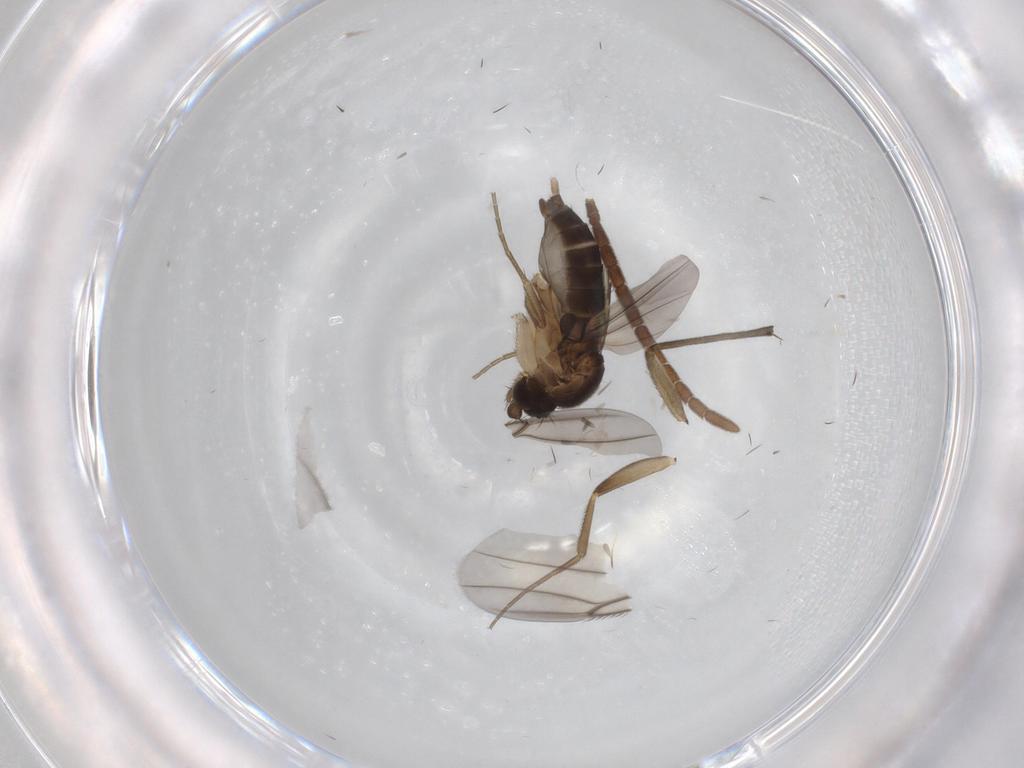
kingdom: Animalia
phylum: Arthropoda
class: Insecta
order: Diptera
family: Phoridae
